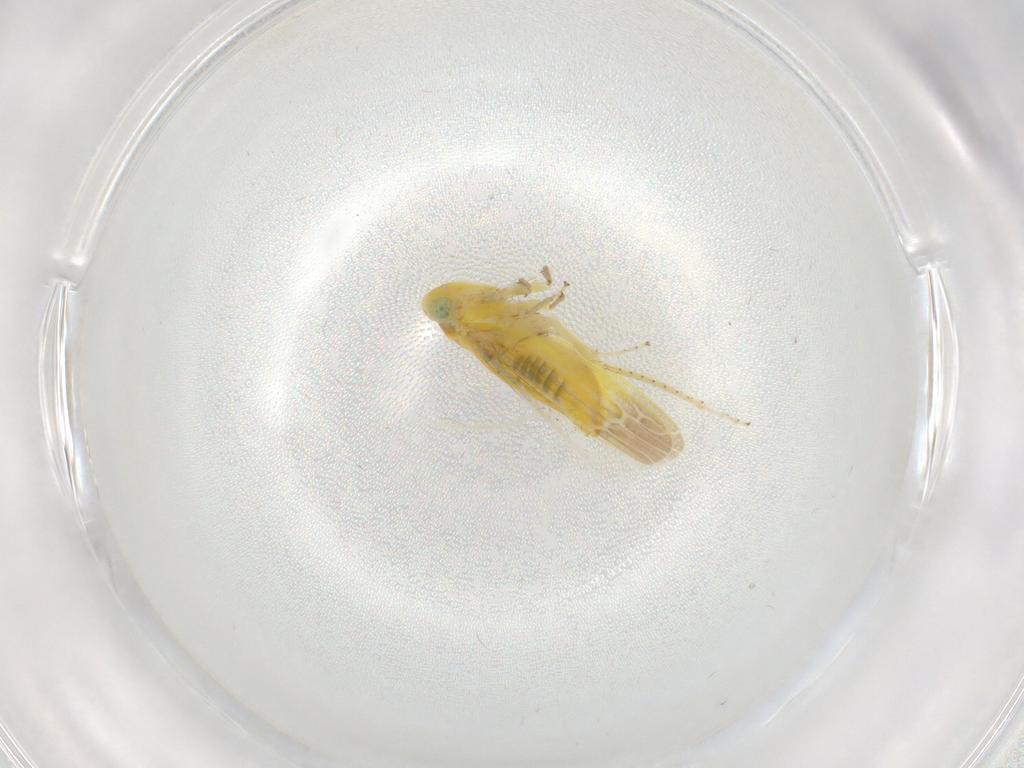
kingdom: Animalia
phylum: Arthropoda
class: Insecta
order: Hemiptera
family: Cicadellidae
